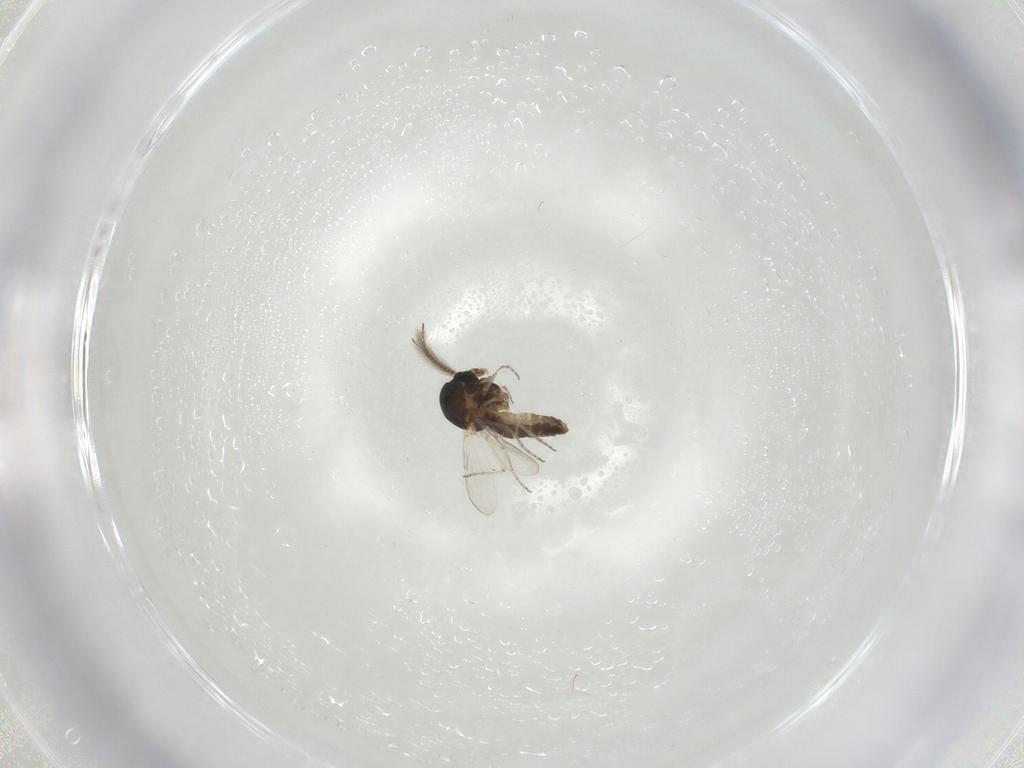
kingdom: Animalia
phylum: Arthropoda
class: Insecta
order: Diptera
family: Ceratopogonidae
